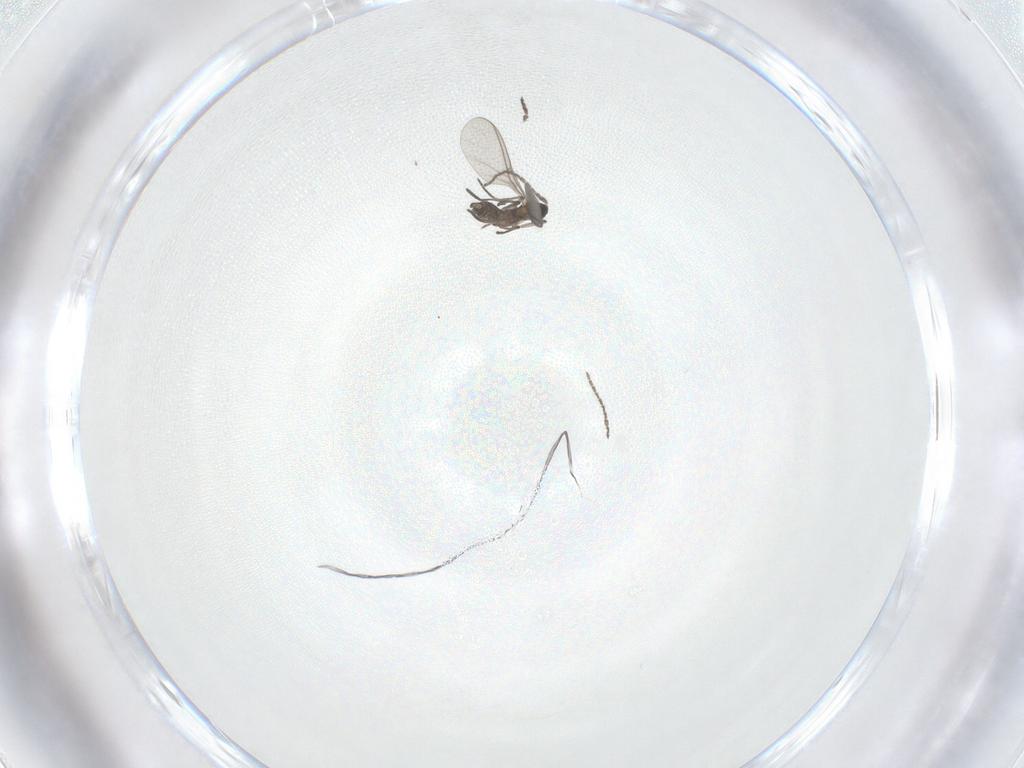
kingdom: Animalia
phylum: Arthropoda
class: Insecta
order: Diptera
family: Sciaridae
